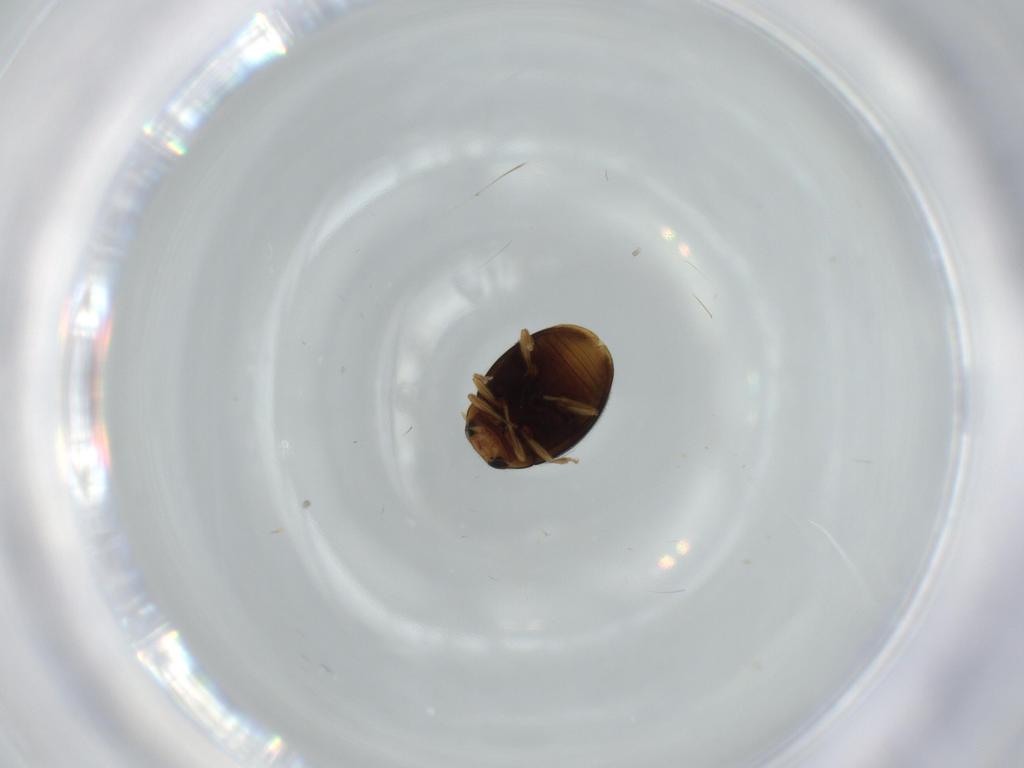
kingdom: Animalia
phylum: Arthropoda
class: Insecta
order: Coleoptera
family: Coccinellidae
